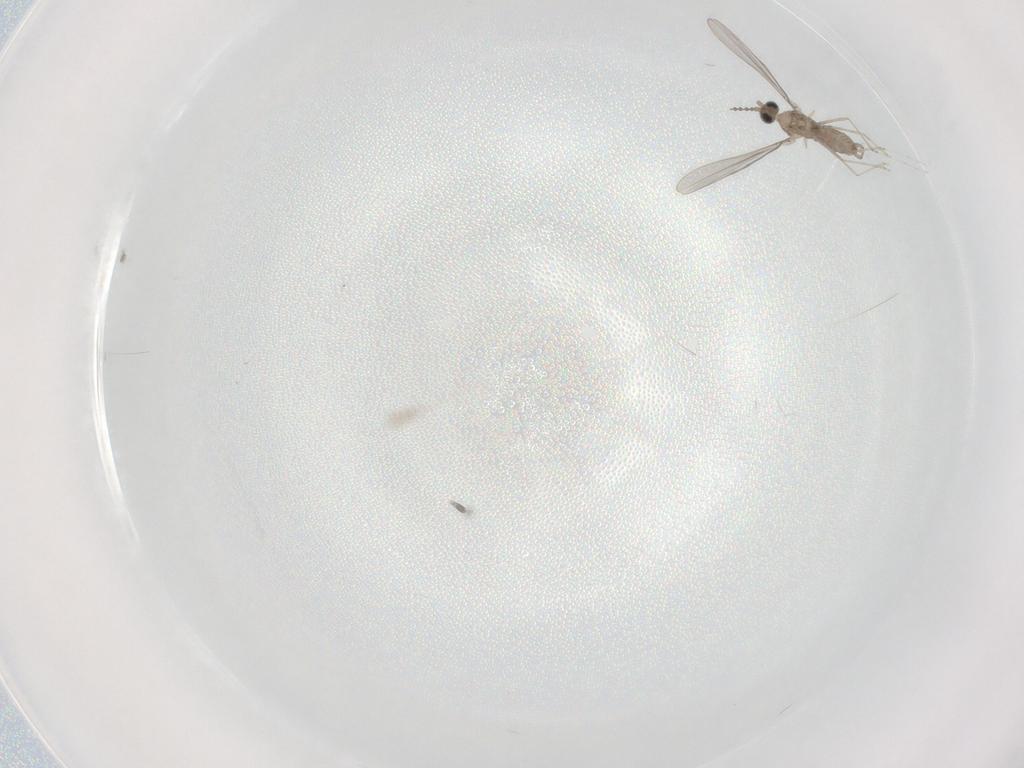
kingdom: Animalia
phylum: Arthropoda
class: Insecta
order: Diptera
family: Cecidomyiidae
